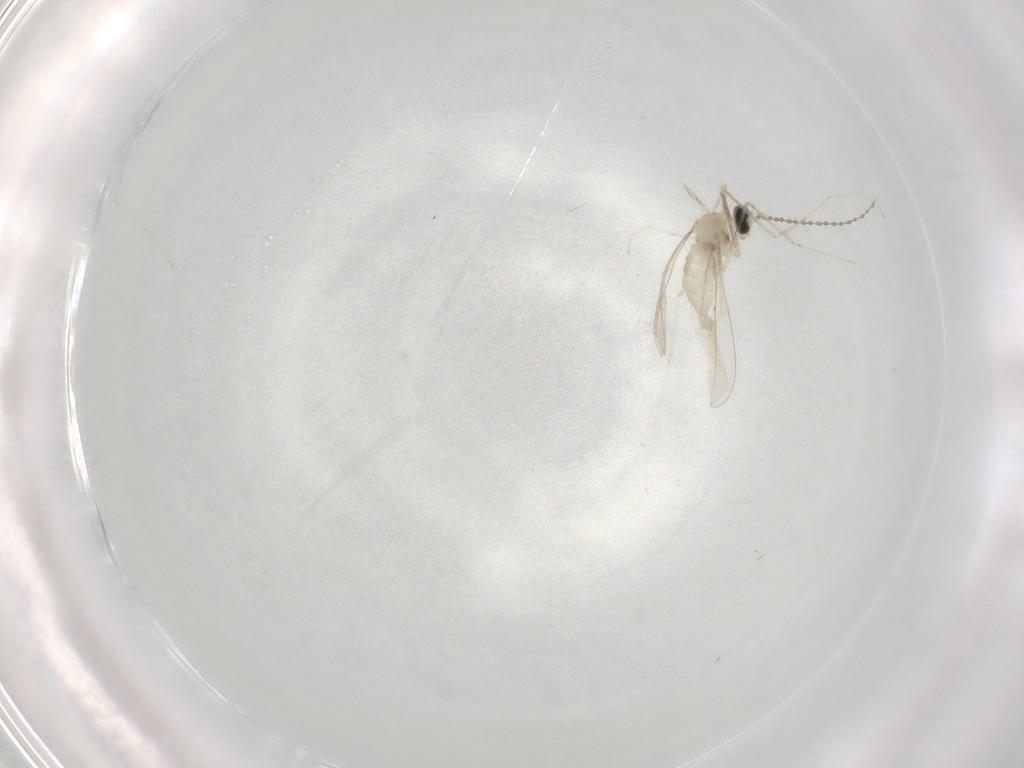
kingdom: Animalia
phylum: Arthropoda
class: Insecta
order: Diptera
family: Cecidomyiidae
